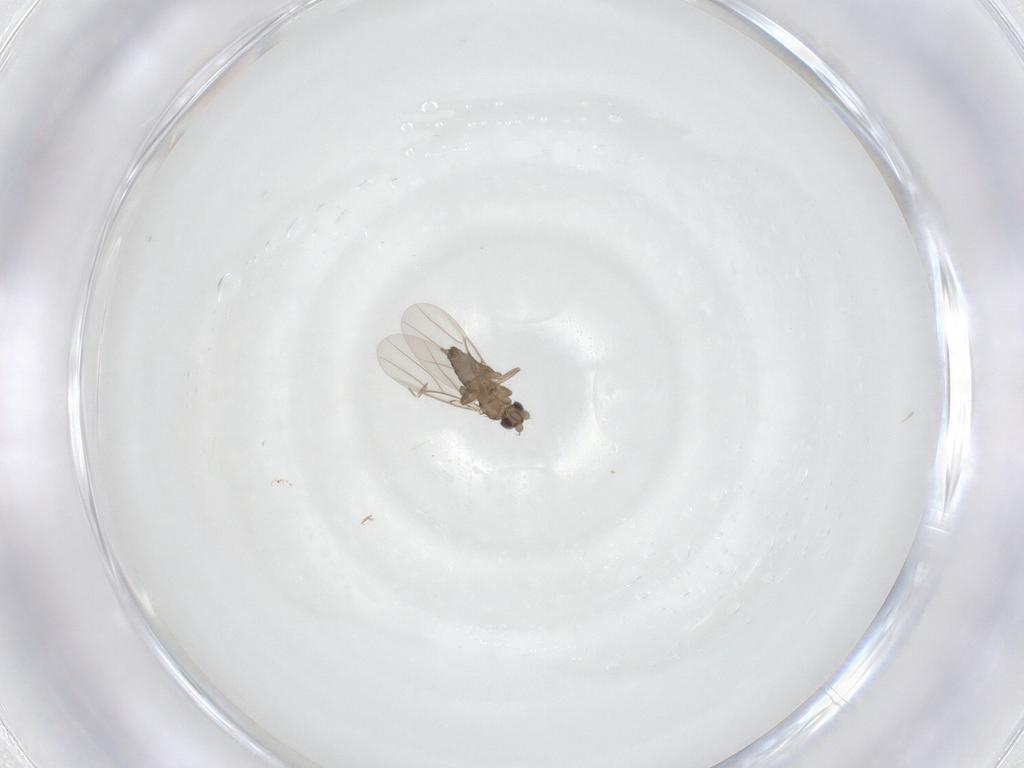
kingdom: Animalia
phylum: Arthropoda
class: Insecta
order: Diptera
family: Phoridae
